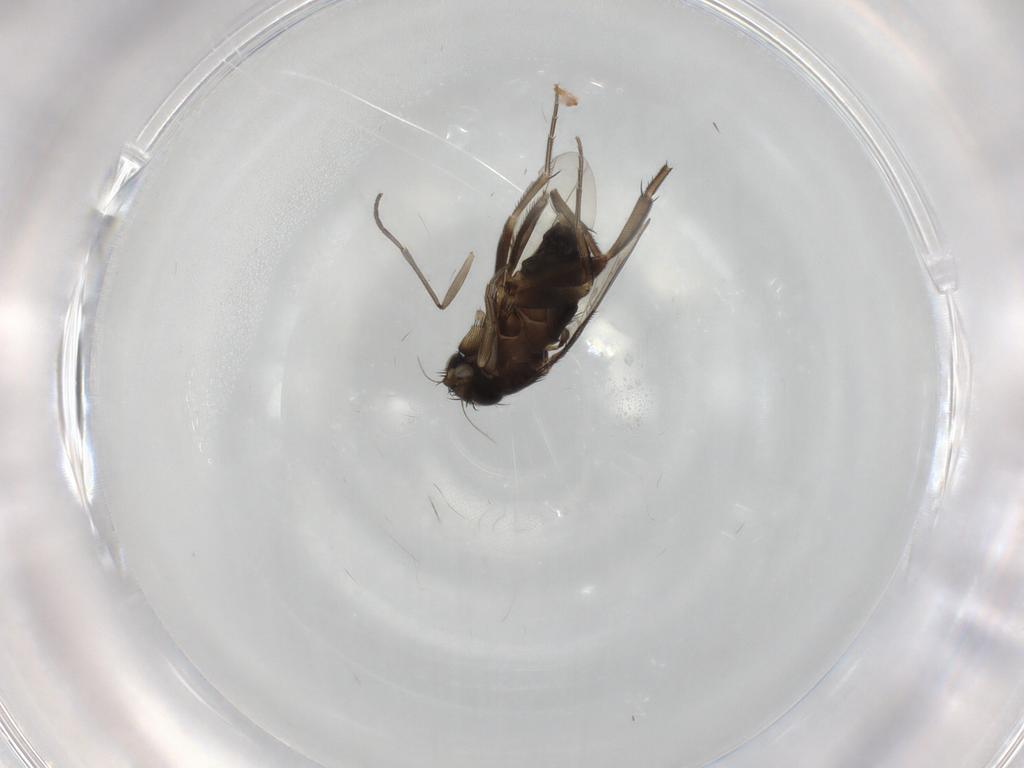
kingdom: Animalia
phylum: Arthropoda
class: Insecta
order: Diptera
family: Phoridae
